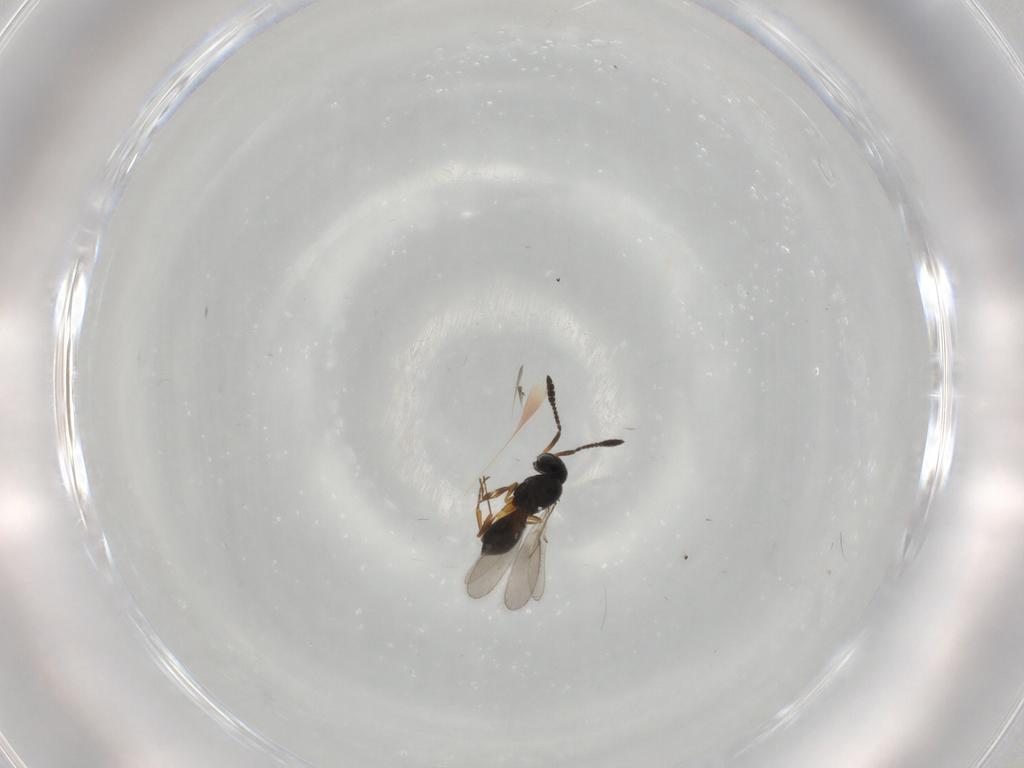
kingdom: Animalia
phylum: Arthropoda
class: Insecta
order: Hymenoptera
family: Scelionidae
